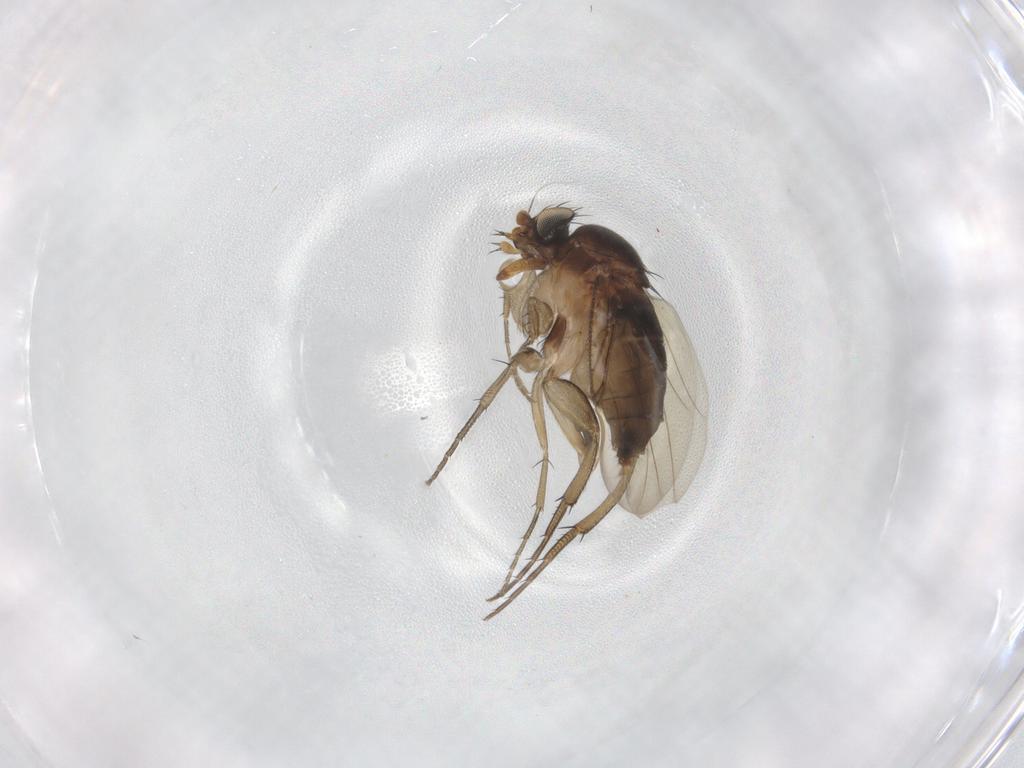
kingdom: Animalia
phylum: Arthropoda
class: Insecta
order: Diptera
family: Phoridae
